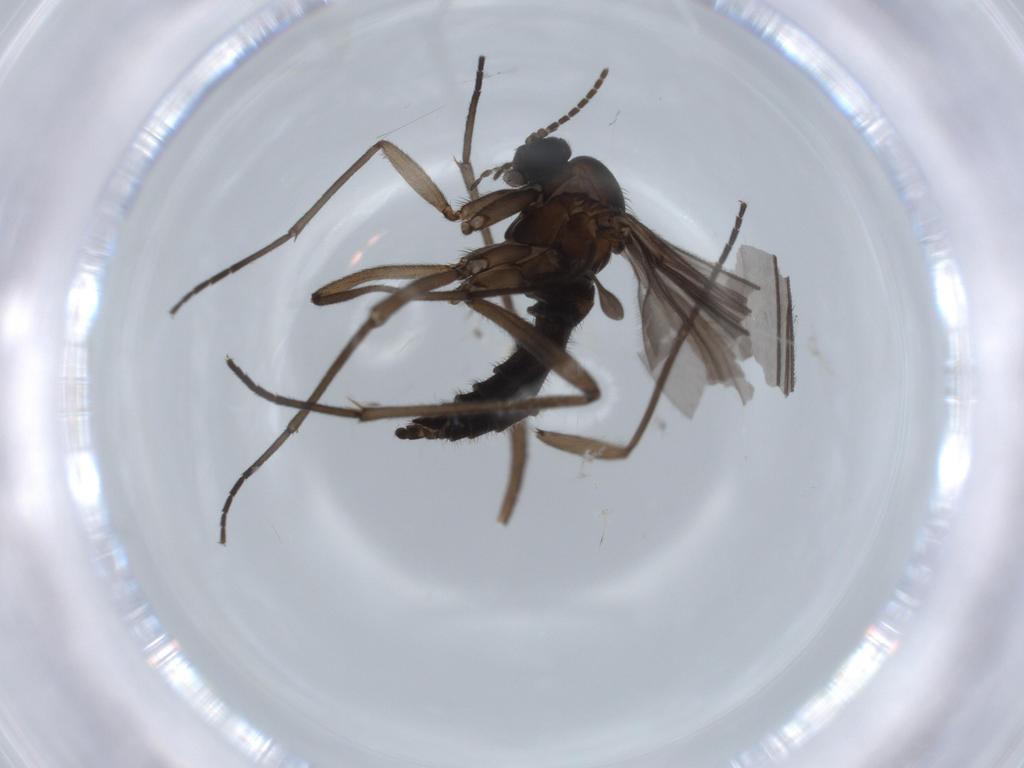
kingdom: Animalia
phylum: Arthropoda
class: Insecta
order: Diptera
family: Sciaridae
